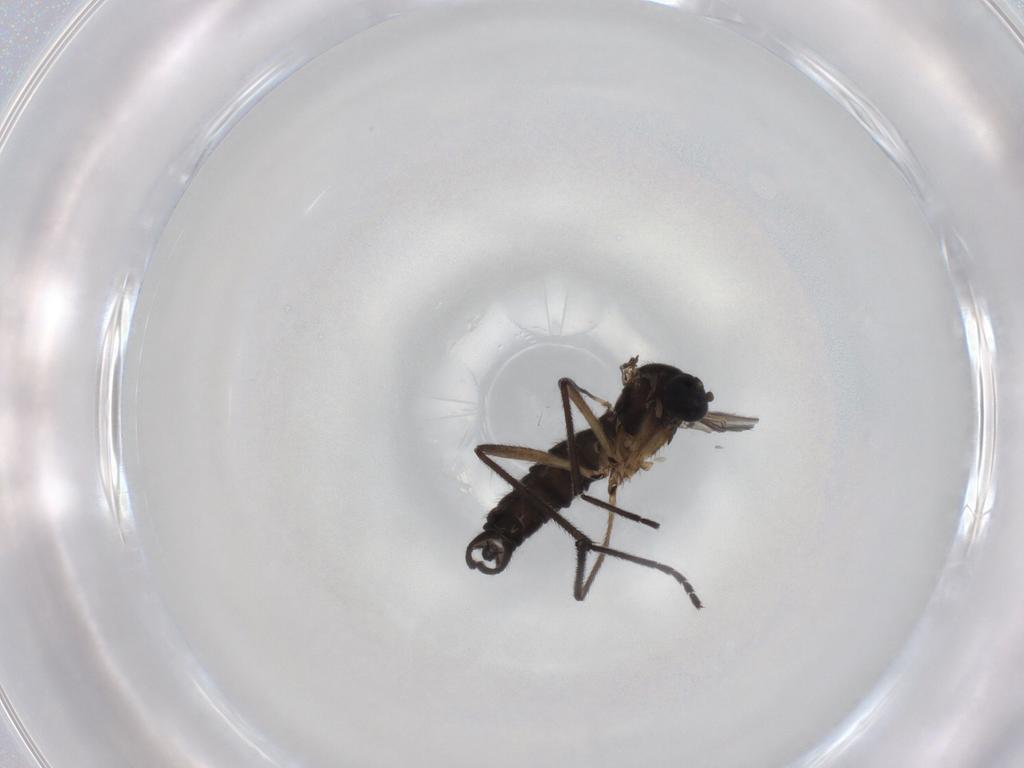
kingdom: Animalia
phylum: Arthropoda
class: Insecta
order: Diptera
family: Sciaridae
